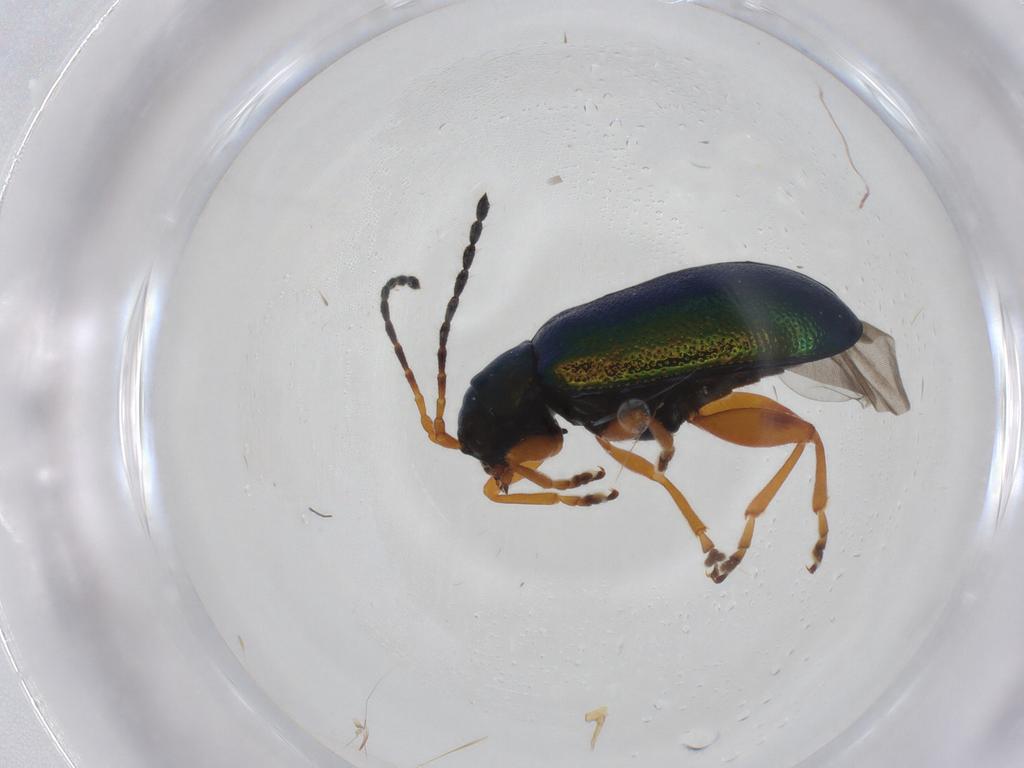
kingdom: Animalia
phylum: Arthropoda
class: Insecta
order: Coleoptera
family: Chrysomelidae
